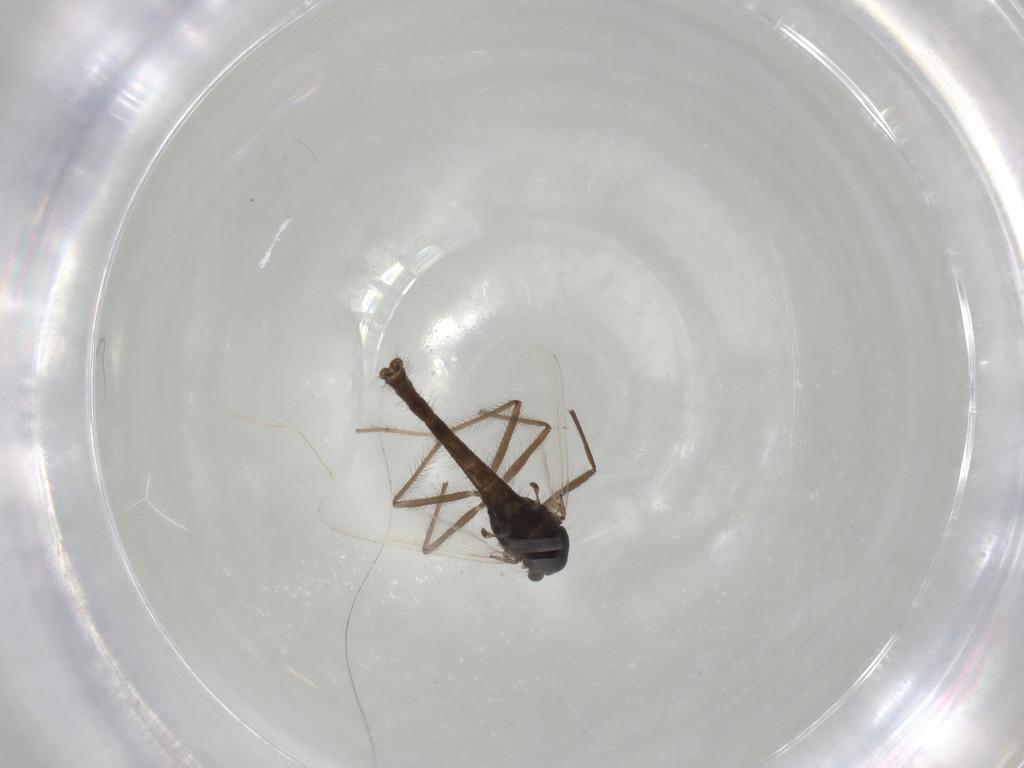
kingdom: Animalia
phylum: Arthropoda
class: Insecta
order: Diptera
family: Chironomidae
